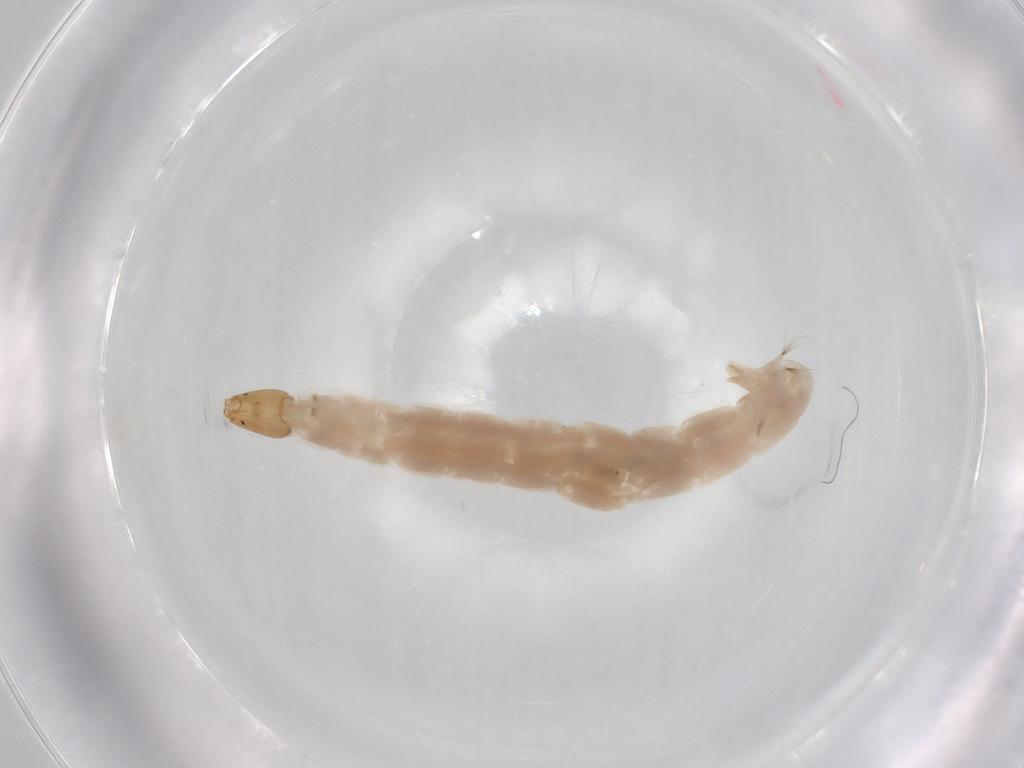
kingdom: Animalia
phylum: Arthropoda
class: Insecta
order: Diptera
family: Chironomidae
